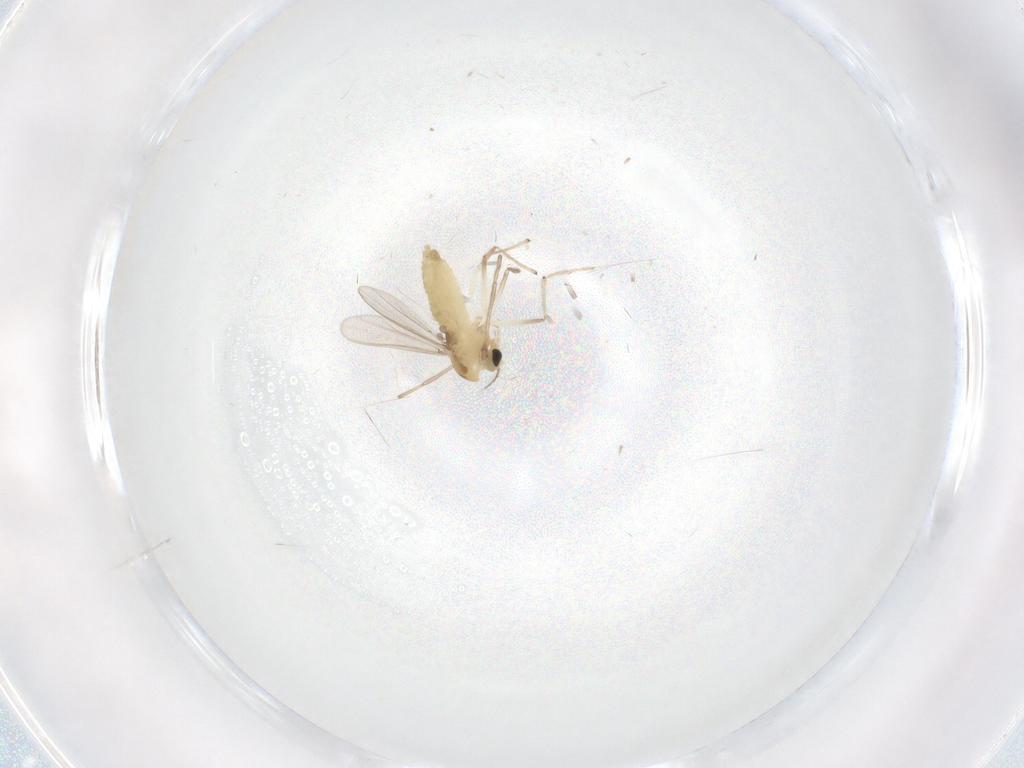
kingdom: Animalia
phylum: Arthropoda
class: Insecta
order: Diptera
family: Chironomidae
